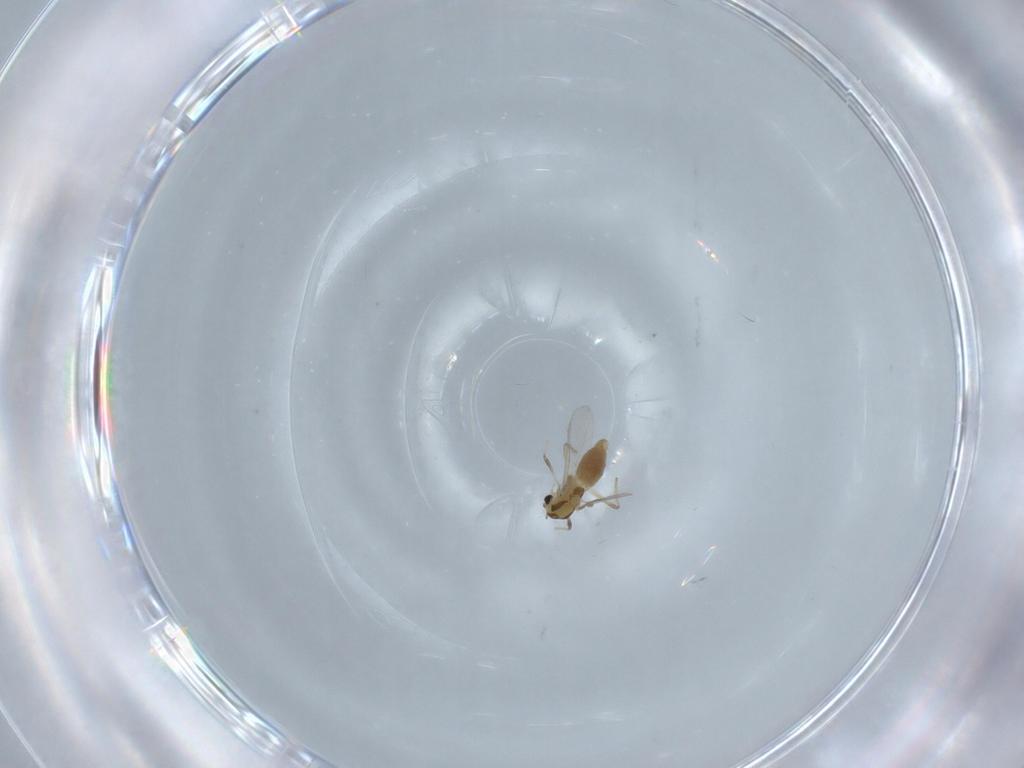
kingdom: Animalia
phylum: Arthropoda
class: Insecta
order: Diptera
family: Chironomidae
